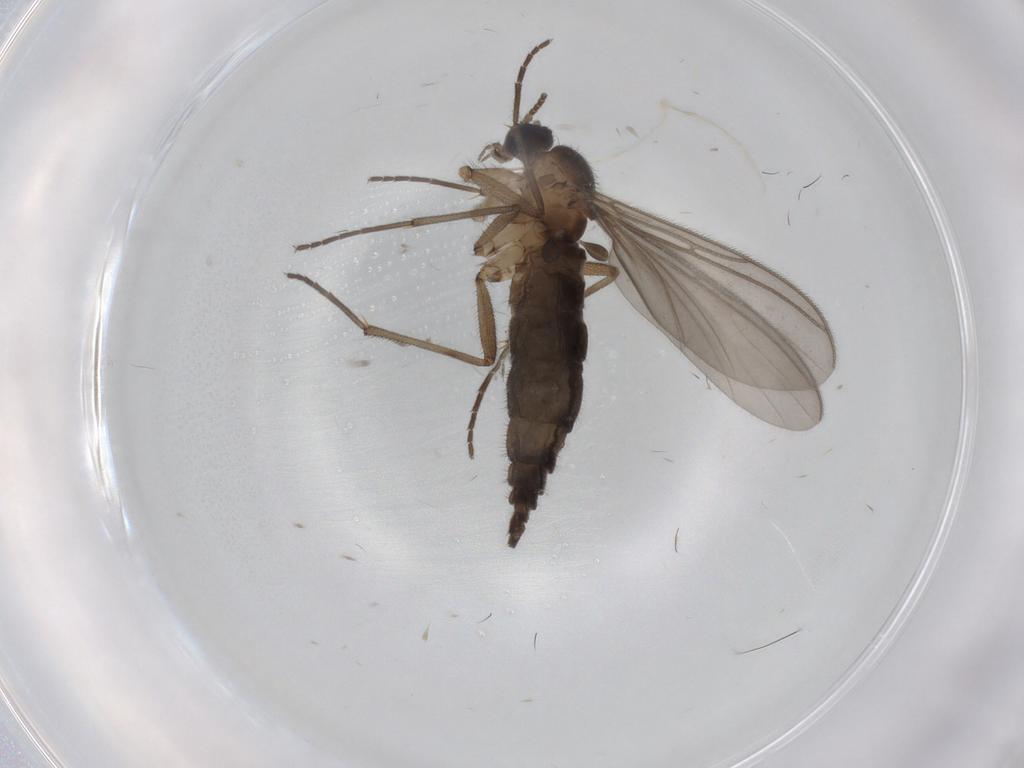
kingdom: Animalia
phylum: Arthropoda
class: Insecta
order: Diptera
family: Sciaridae
